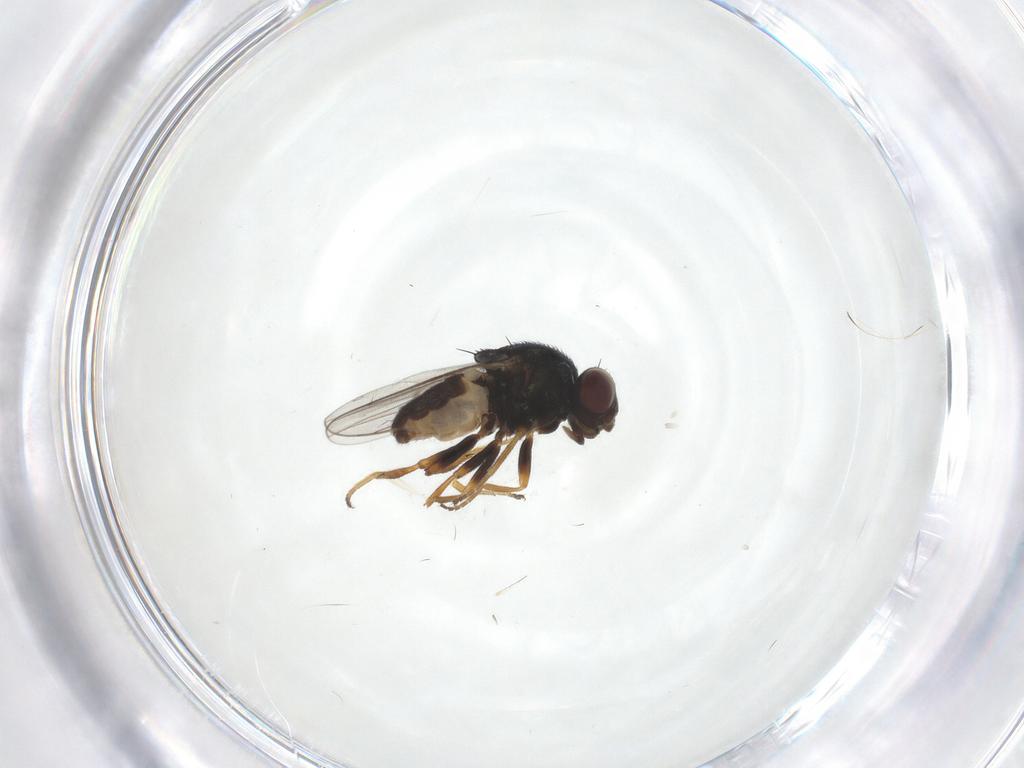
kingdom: Animalia
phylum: Arthropoda
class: Insecta
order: Diptera
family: Chloropidae
